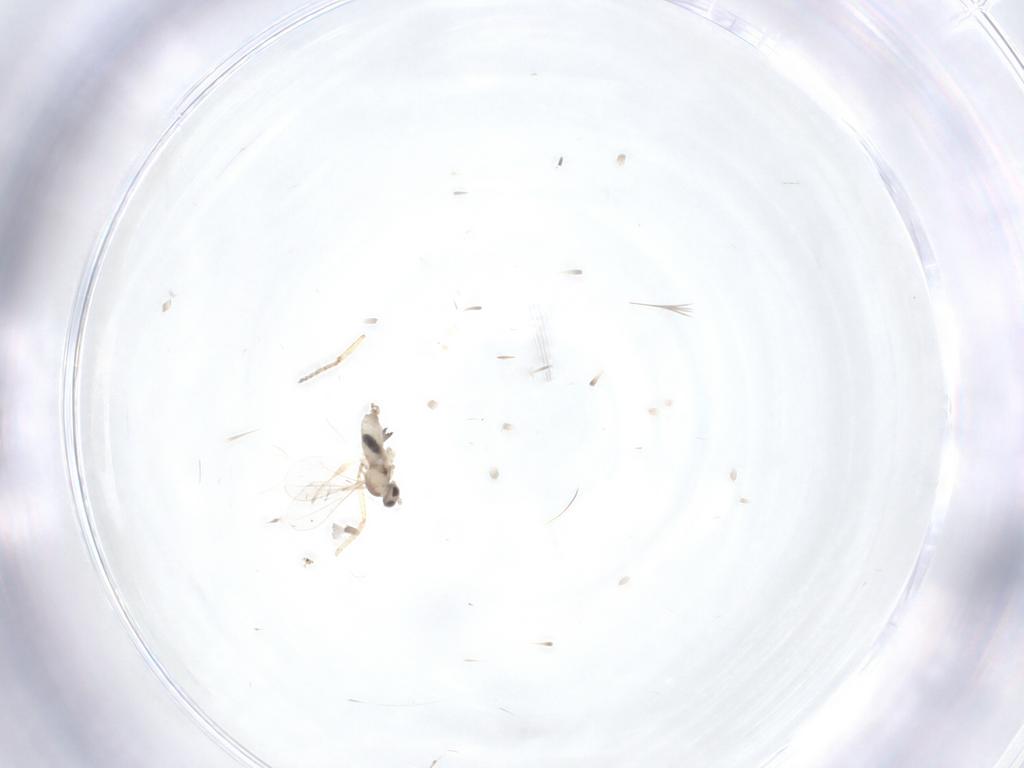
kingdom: Animalia
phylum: Arthropoda
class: Insecta
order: Diptera
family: Cecidomyiidae
